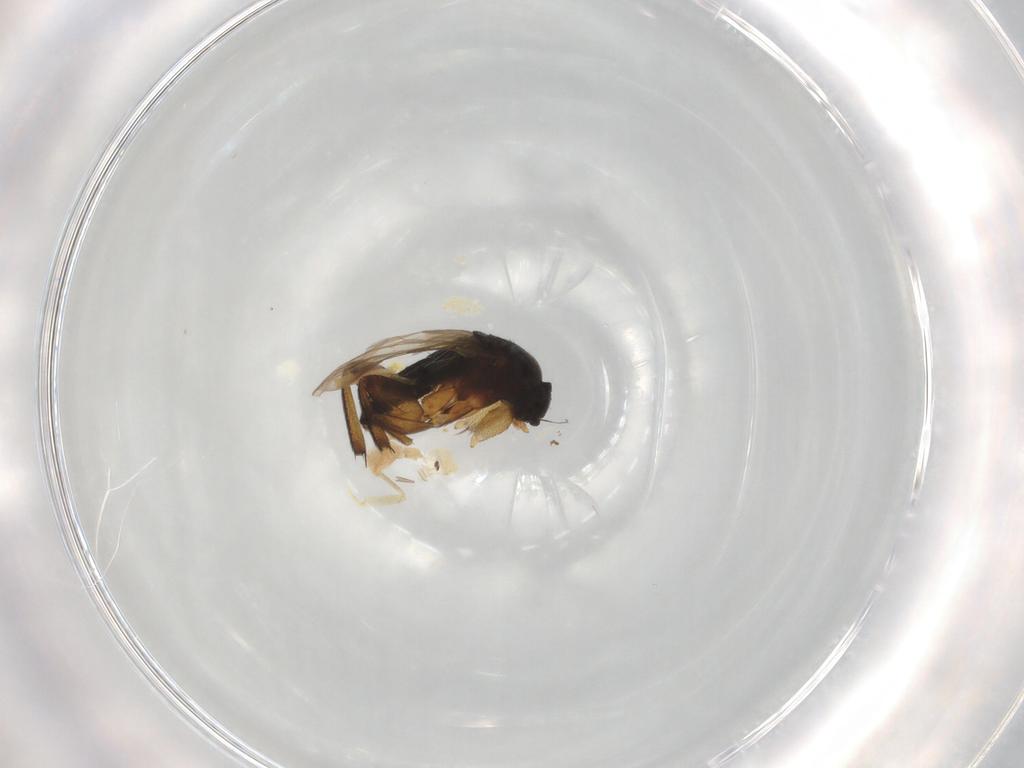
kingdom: Animalia
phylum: Arthropoda
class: Insecta
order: Diptera
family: Glossinidae
